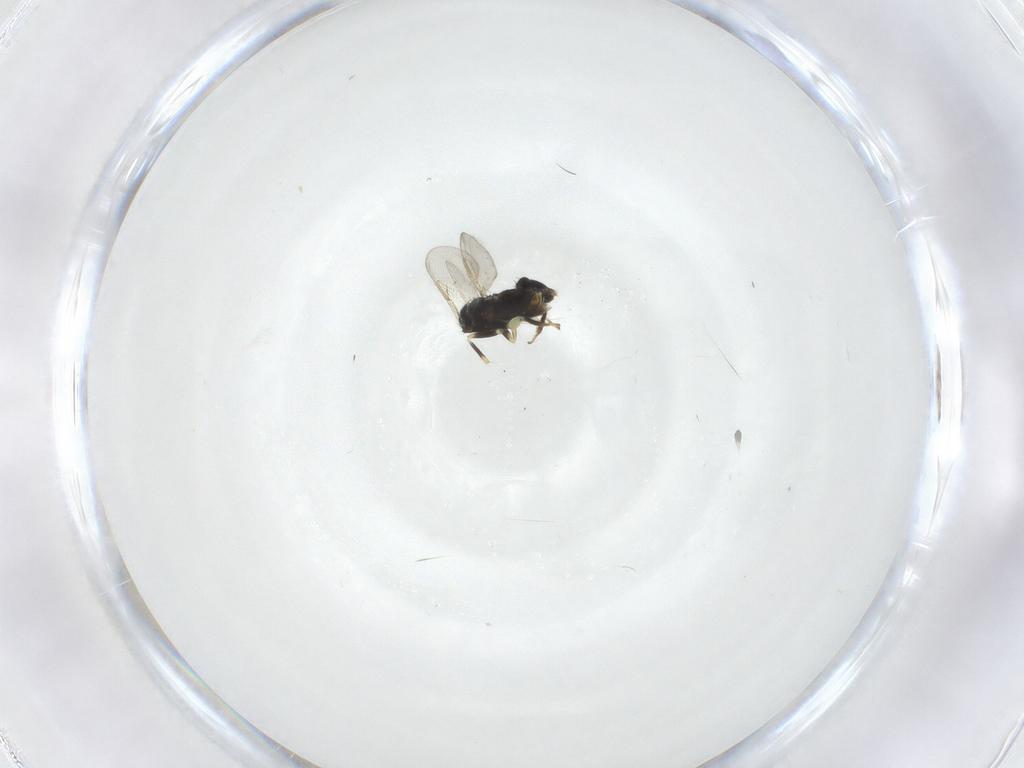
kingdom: Animalia
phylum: Arthropoda
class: Insecta
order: Hymenoptera
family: Aphelinidae
